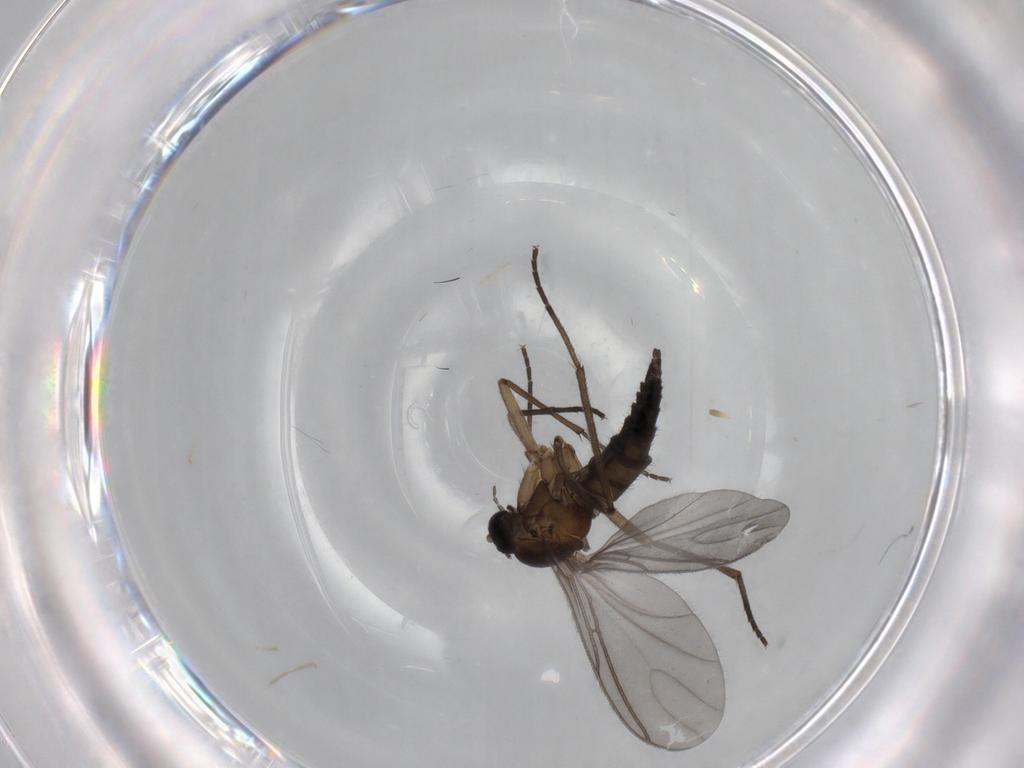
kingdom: Animalia
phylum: Arthropoda
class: Insecta
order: Diptera
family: Sciaridae
